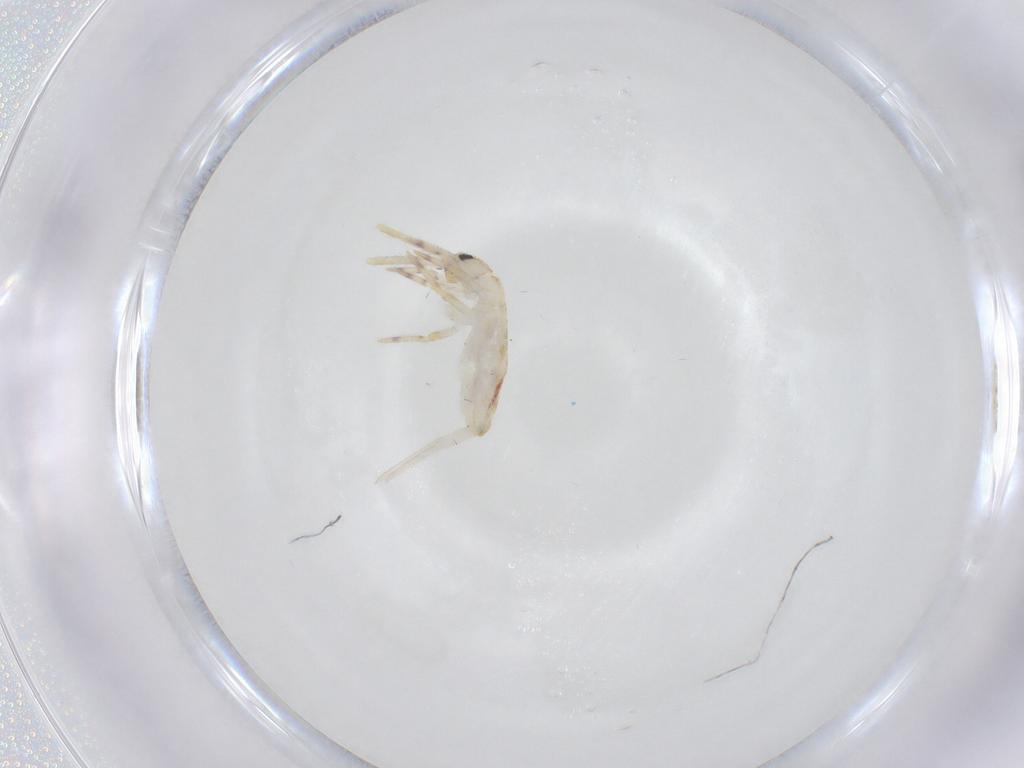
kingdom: Animalia
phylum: Arthropoda
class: Collembola
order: Entomobryomorpha
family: Entomobryidae
